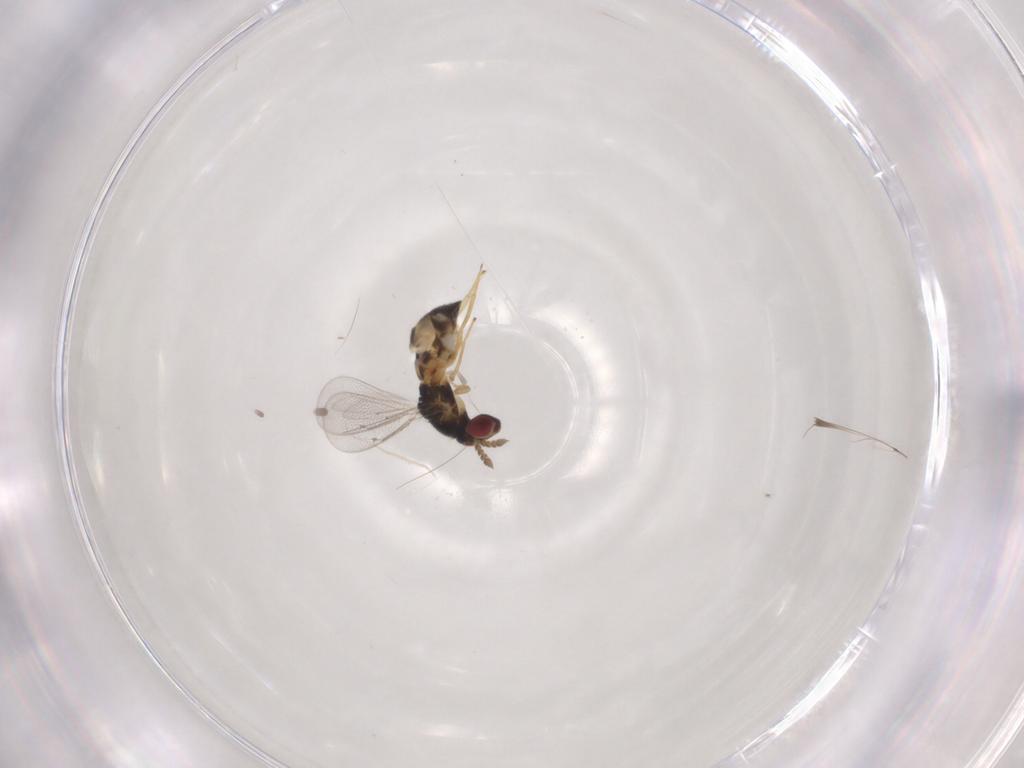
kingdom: Animalia
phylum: Arthropoda
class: Insecta
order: Hymenoptera
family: Eulophidae
